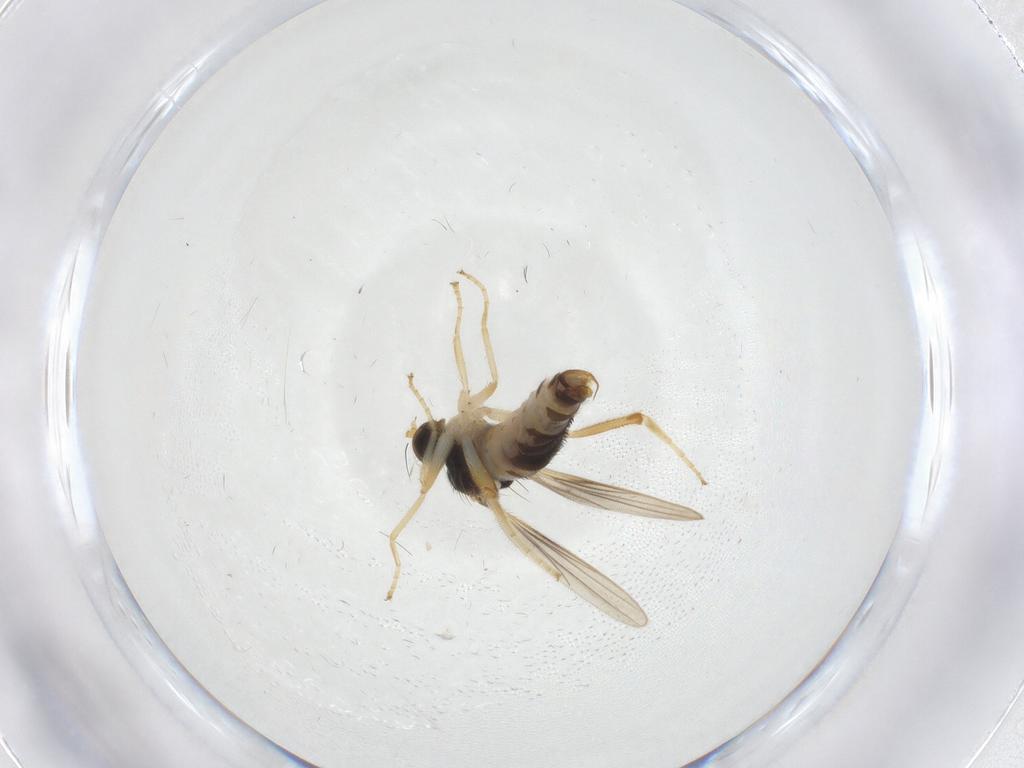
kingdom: Animalia
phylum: Arthropoda
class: Insecta
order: Diptera
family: Hybotidae
